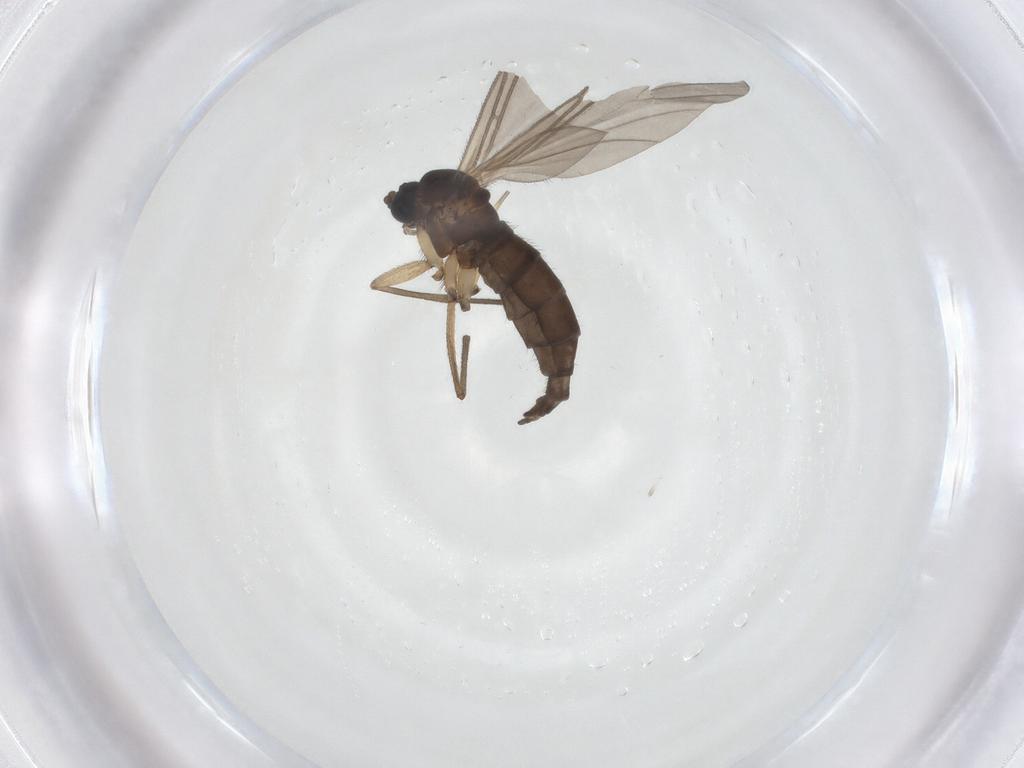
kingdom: Animalia
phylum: Arthropoda
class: Insecta
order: Diptera
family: Sciaridae
